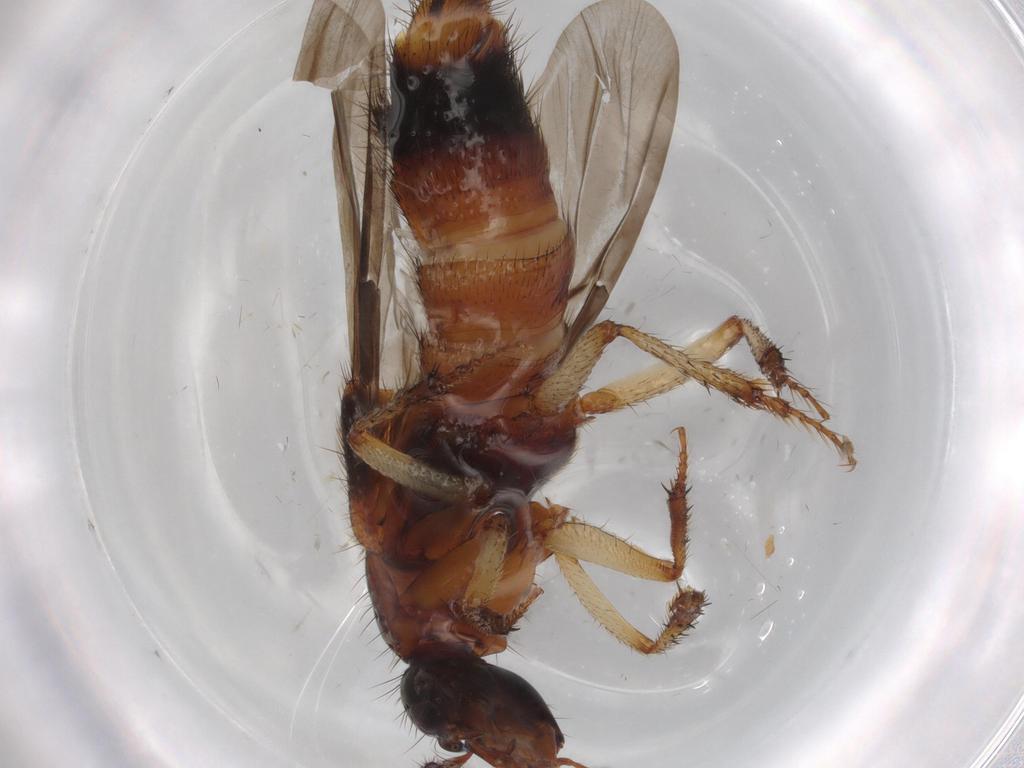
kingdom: Animalia
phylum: Arthropoda
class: Insecta
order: Coleoptera
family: Staphylinidae
